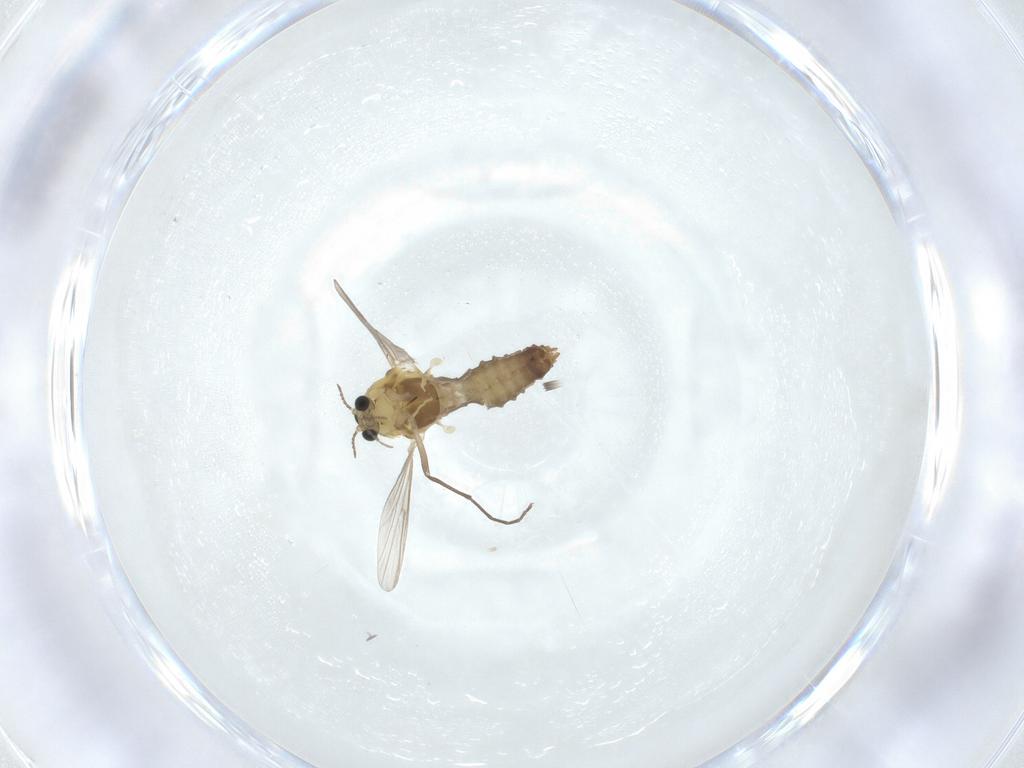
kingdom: Animalia
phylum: Arthropoda
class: Insecta
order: Diptera
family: Chironomidae
